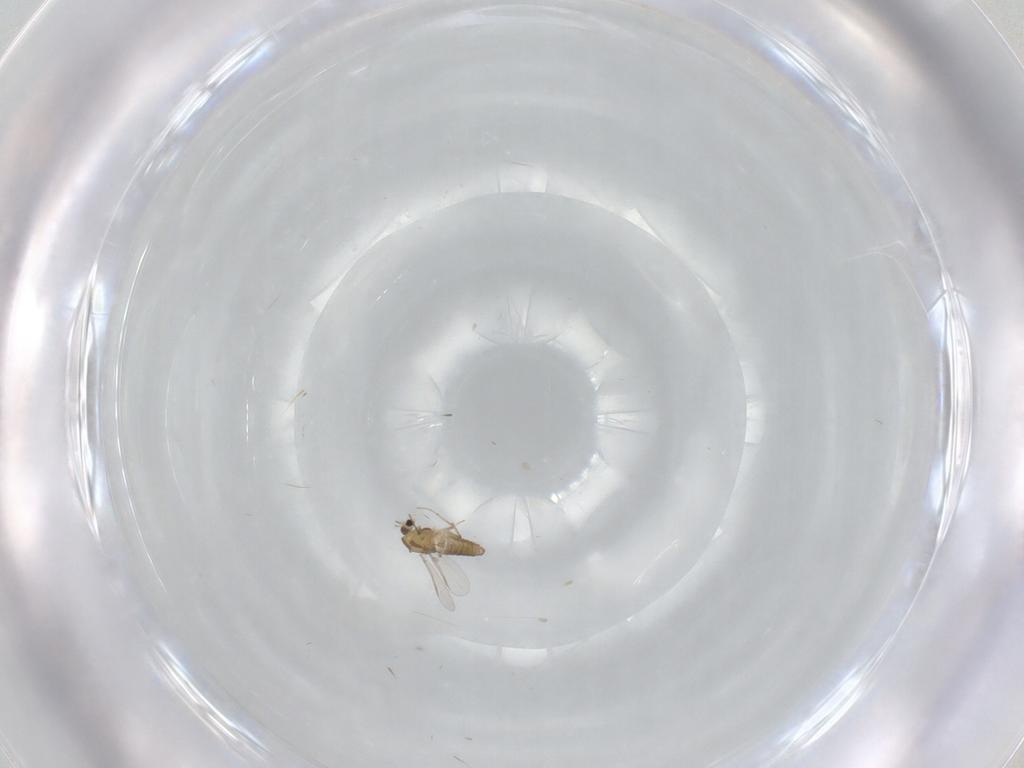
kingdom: Animalia
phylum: Arthropoda
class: Insecta
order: Diptera
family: Chironomidae
